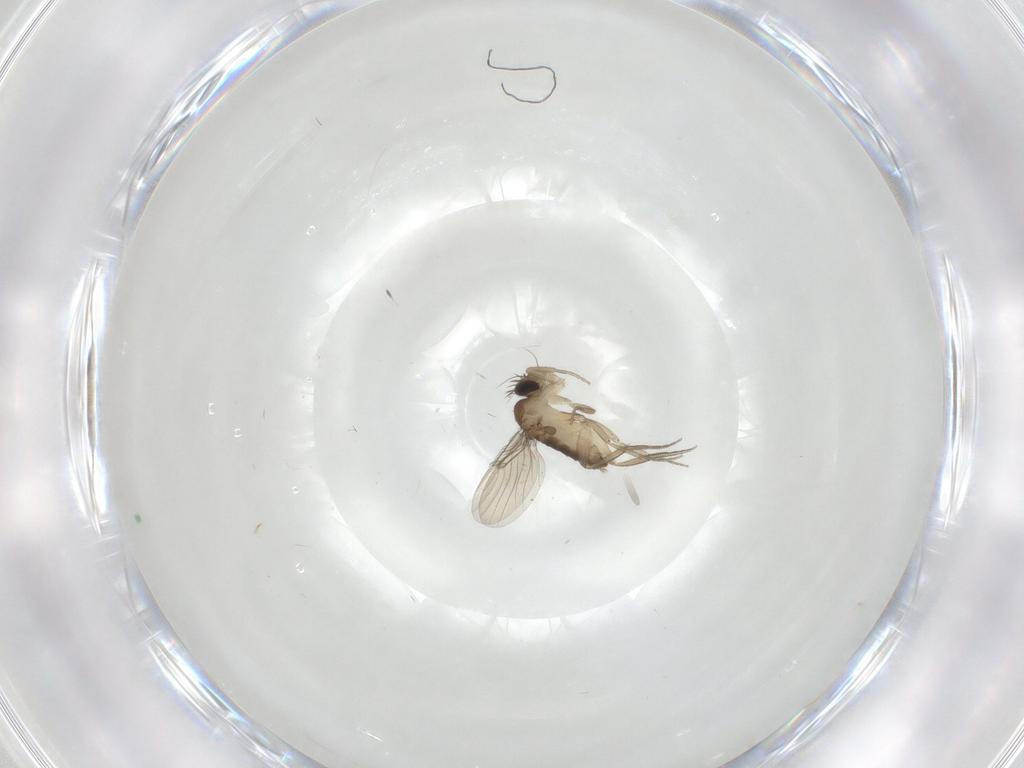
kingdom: Animalia
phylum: Arthropoda
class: Insecta
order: Diptera
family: Phoridae
